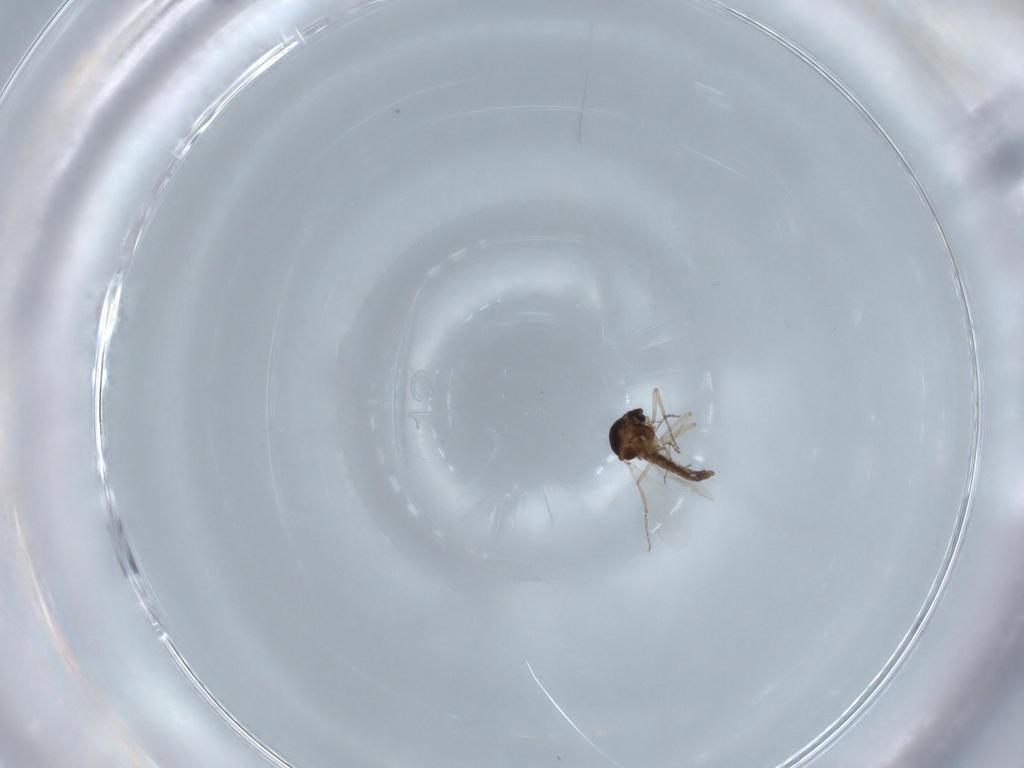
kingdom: Animalia
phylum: Arthropoda
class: Insecta
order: Diptera
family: Ceratopogonidae
